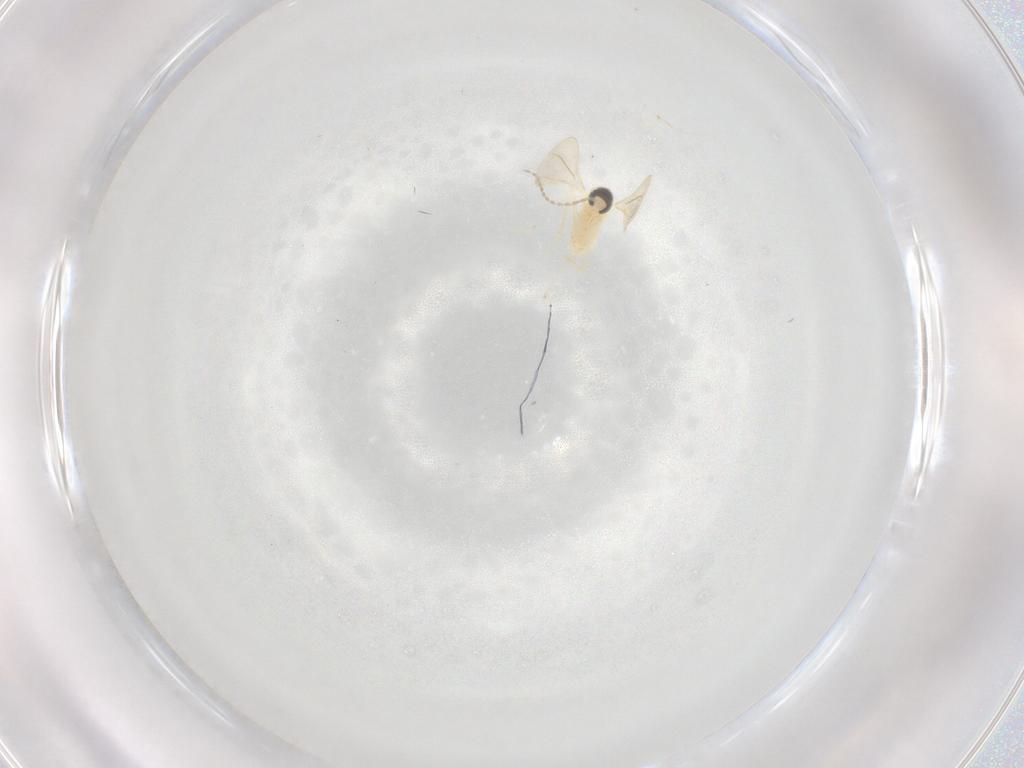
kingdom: Animalia
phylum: Arthropoda
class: Insecta
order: Diptera
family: Cecidomyiidae
